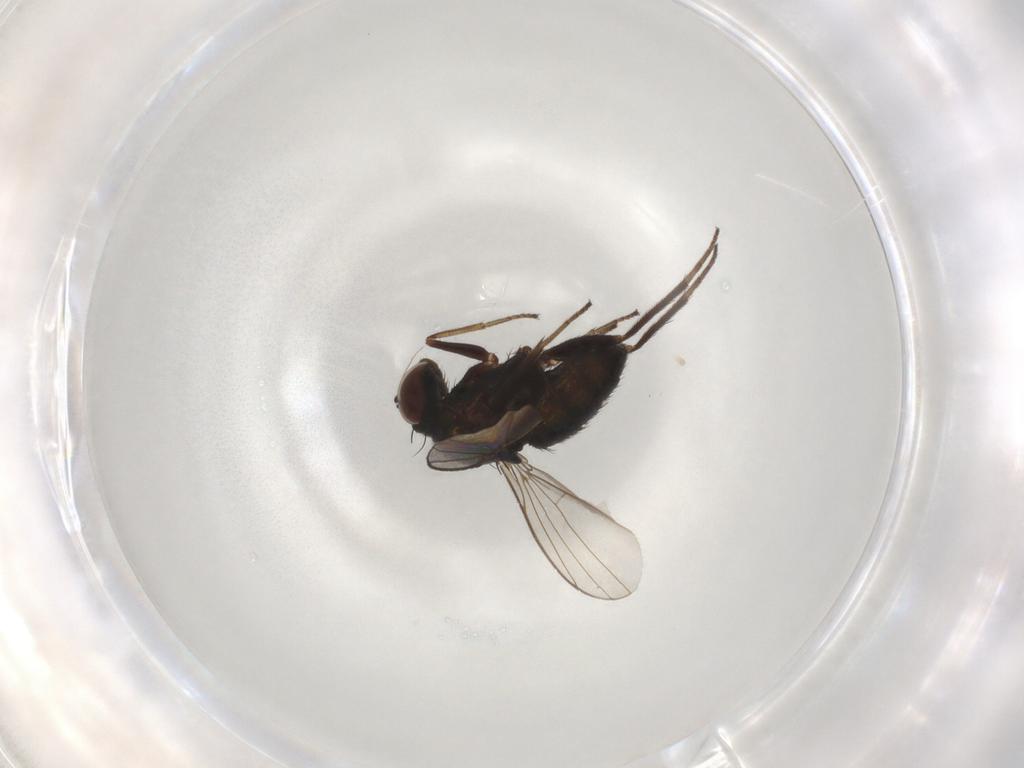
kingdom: Animalia
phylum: Arthropoda
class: Insecta
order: Diptera
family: Dolichopodidae
